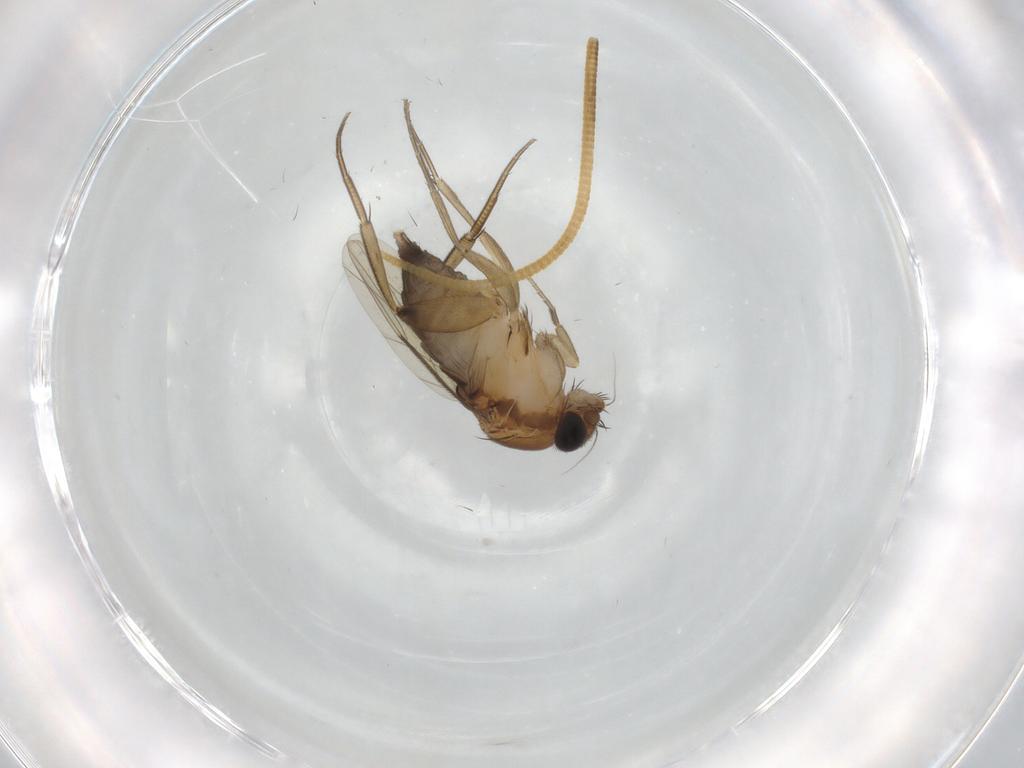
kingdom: Animalia
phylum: Arthropoda
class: Insecta
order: Diptera
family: Phoridae
